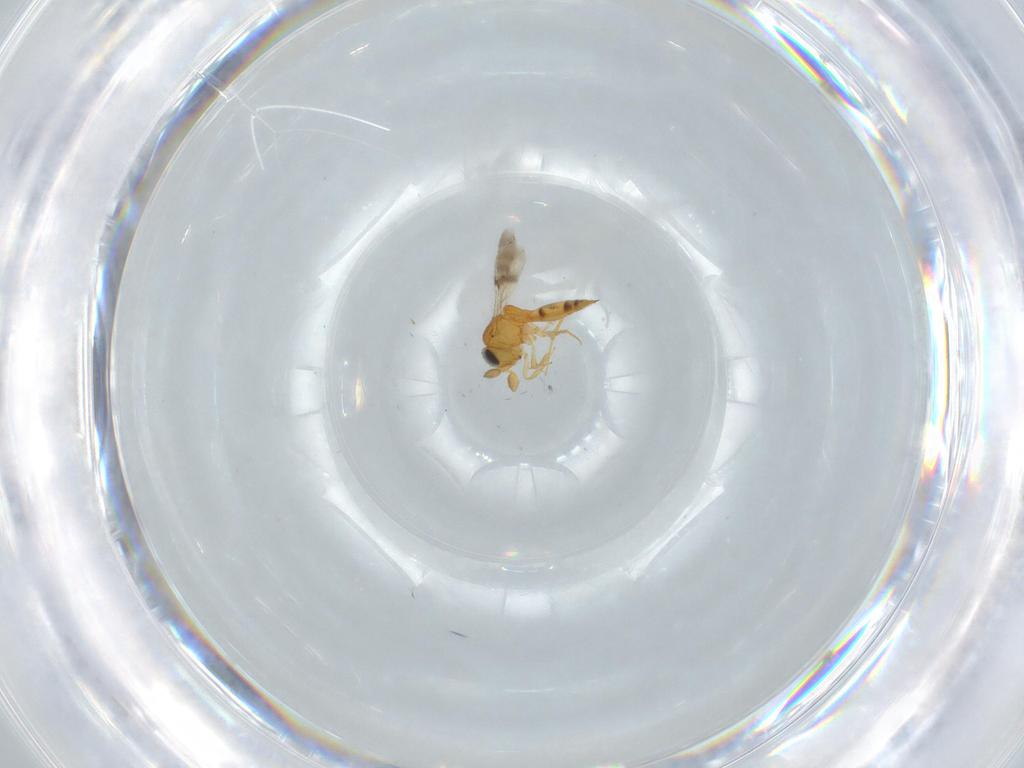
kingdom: Animalia
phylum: Arthropoda
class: Insecta
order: Hymenoptera
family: Scelionidae
